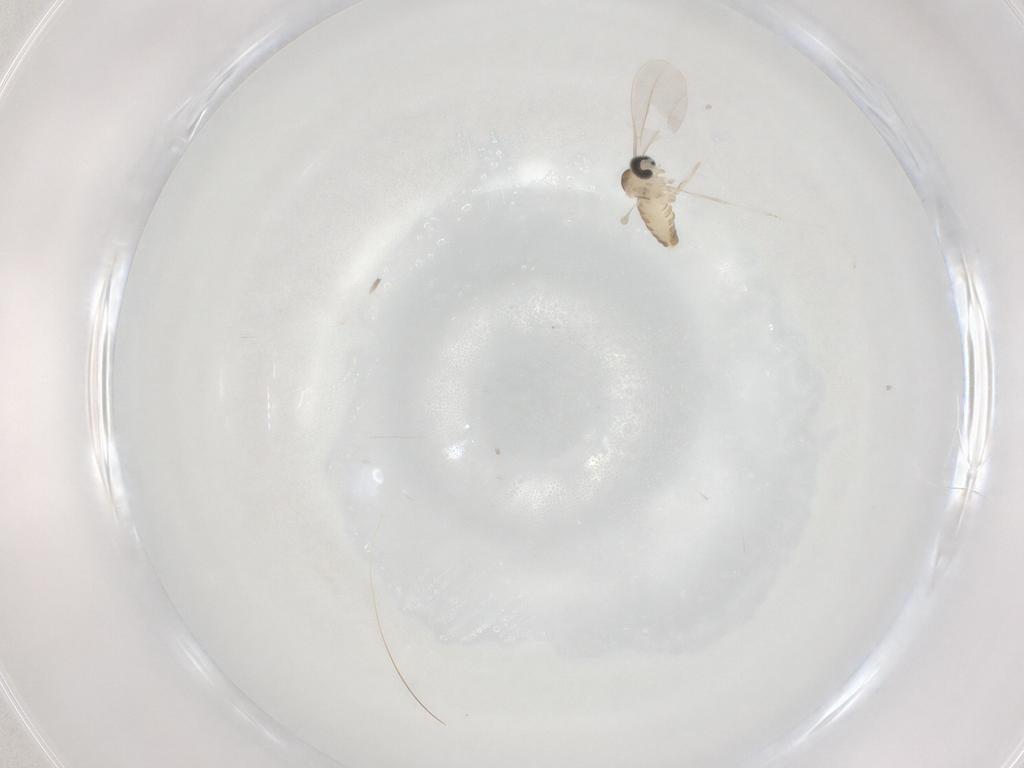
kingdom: Animalia
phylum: Arthropoda
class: Insecta
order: Diptera
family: Cecidomyiidae
